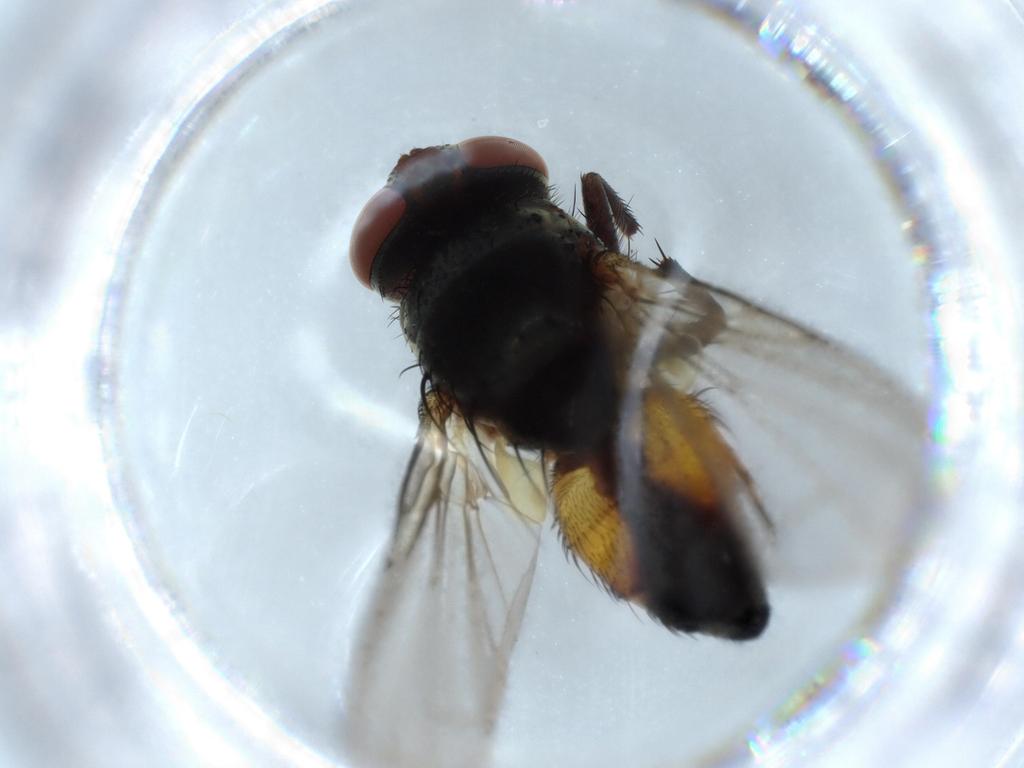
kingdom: Animalia
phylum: Arthropoda
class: Insecta
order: Diptera
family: Tachinidae
